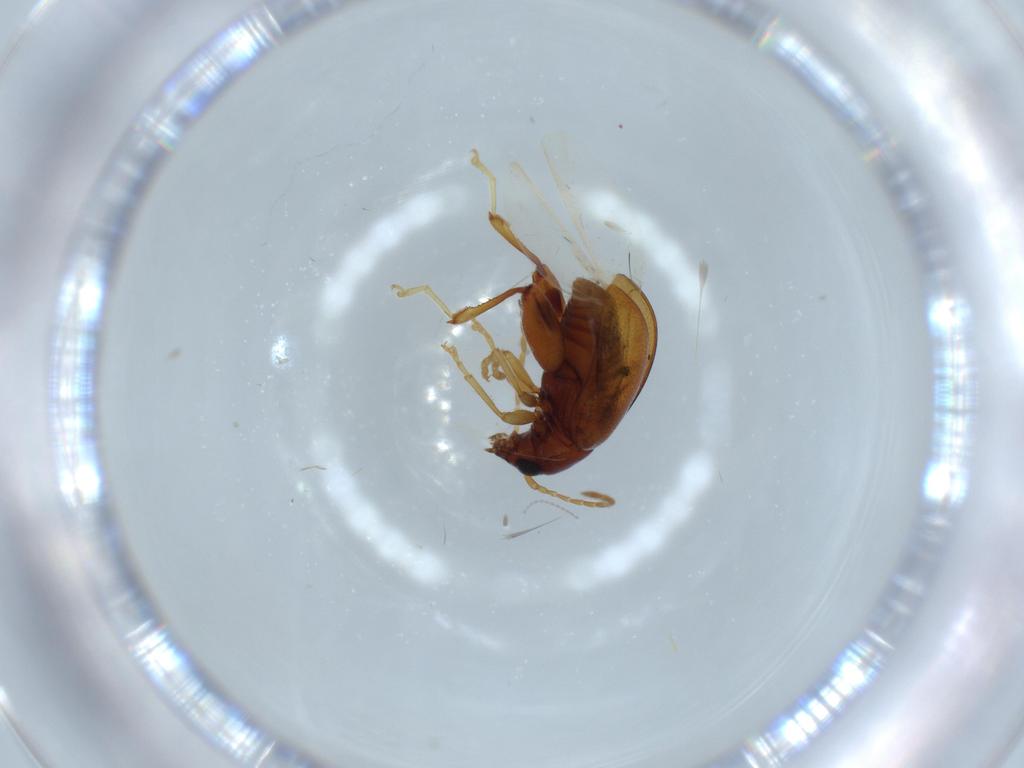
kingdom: Animalia
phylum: Arthropoda
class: Insecta
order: Coleoptera
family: Chrysomelidae
